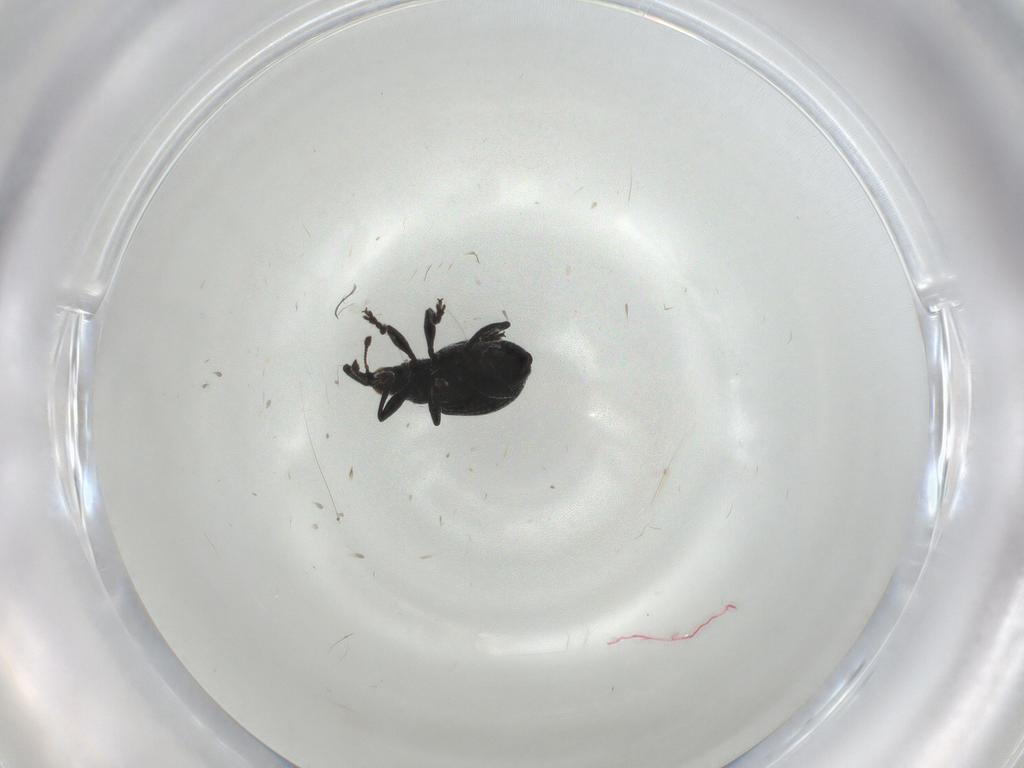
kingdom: Animalia
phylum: Arthropoda
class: Insecta
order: Coleoptera
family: Brentidae
